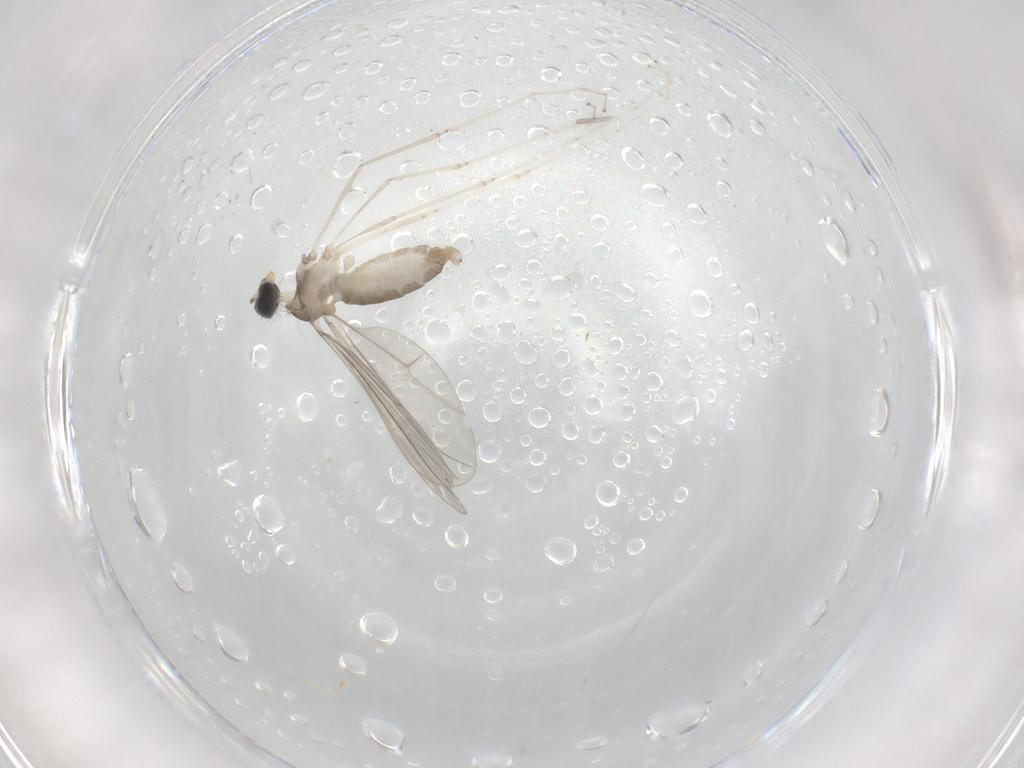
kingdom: Animalia
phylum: Arthropoda
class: Insecta
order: Diptera
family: Cecidomyiidae
